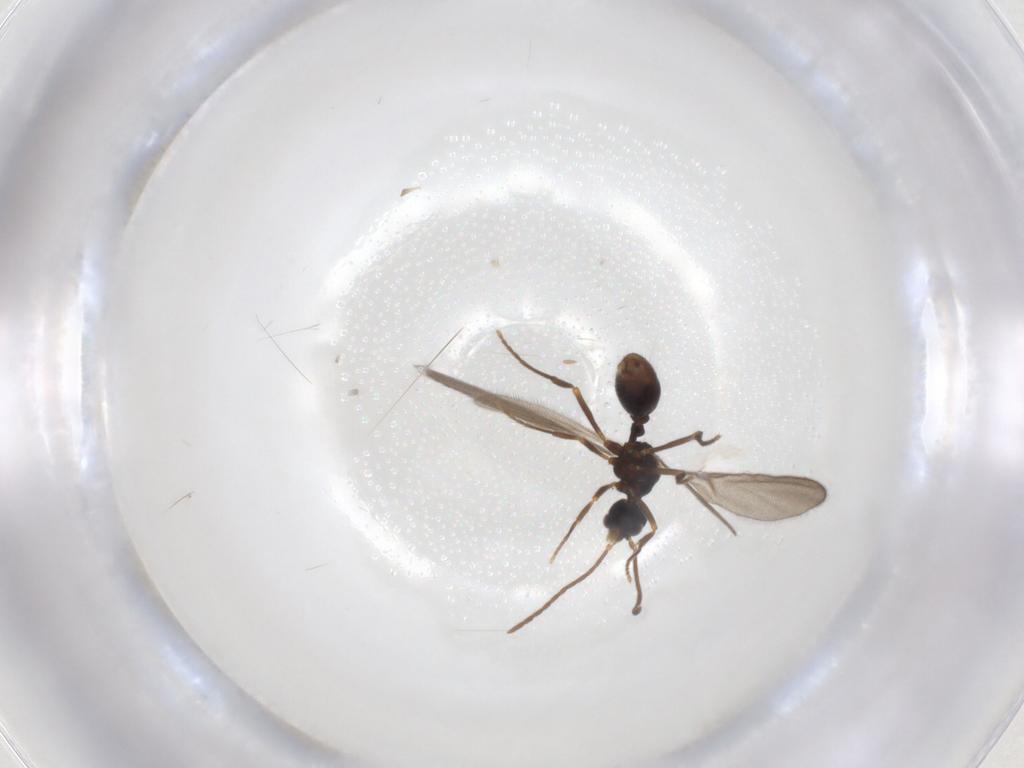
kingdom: Animalia
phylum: Arthropoda
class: Insecta
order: Hymenoptera
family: Formicidae
